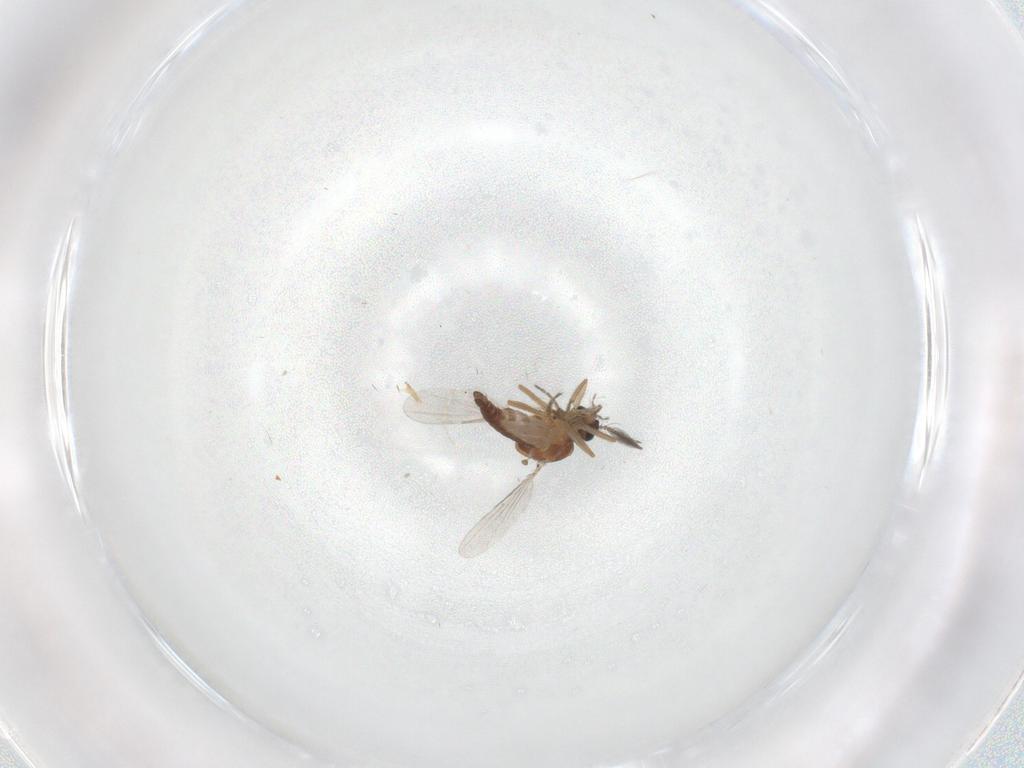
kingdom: Animalia
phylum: Arthropoda
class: Insecta
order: Diptera
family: Ceratopogonidae
